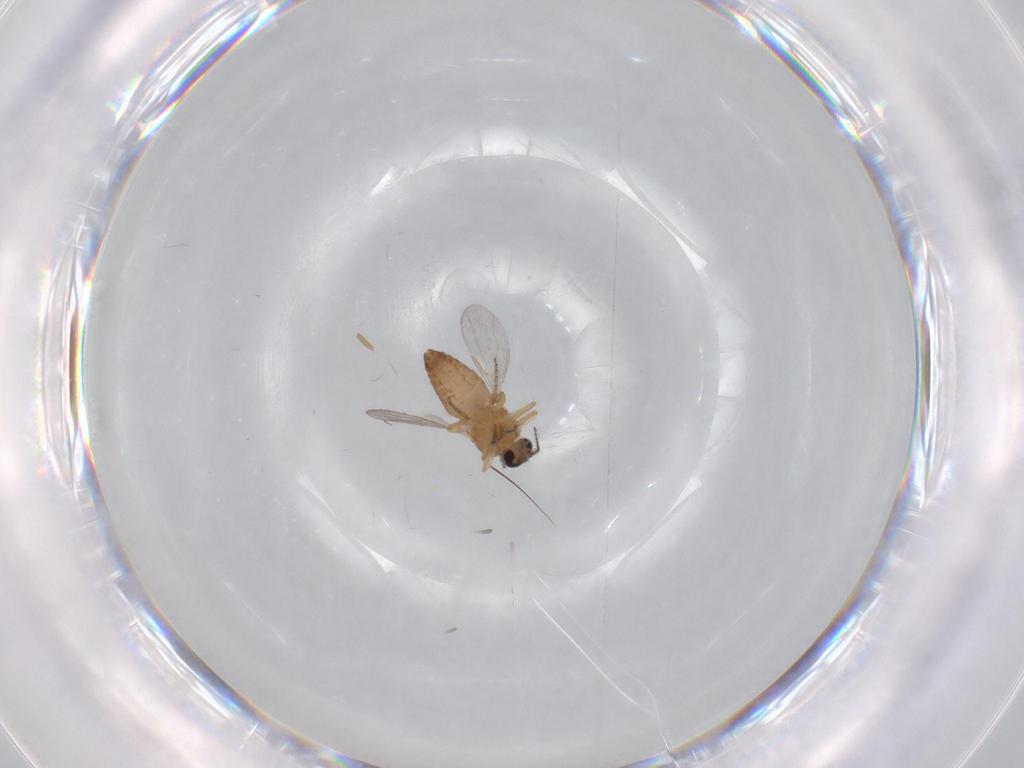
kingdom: Animalia
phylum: Arthropoda
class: Insecta
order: Diptera
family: Ceratopogonidae
